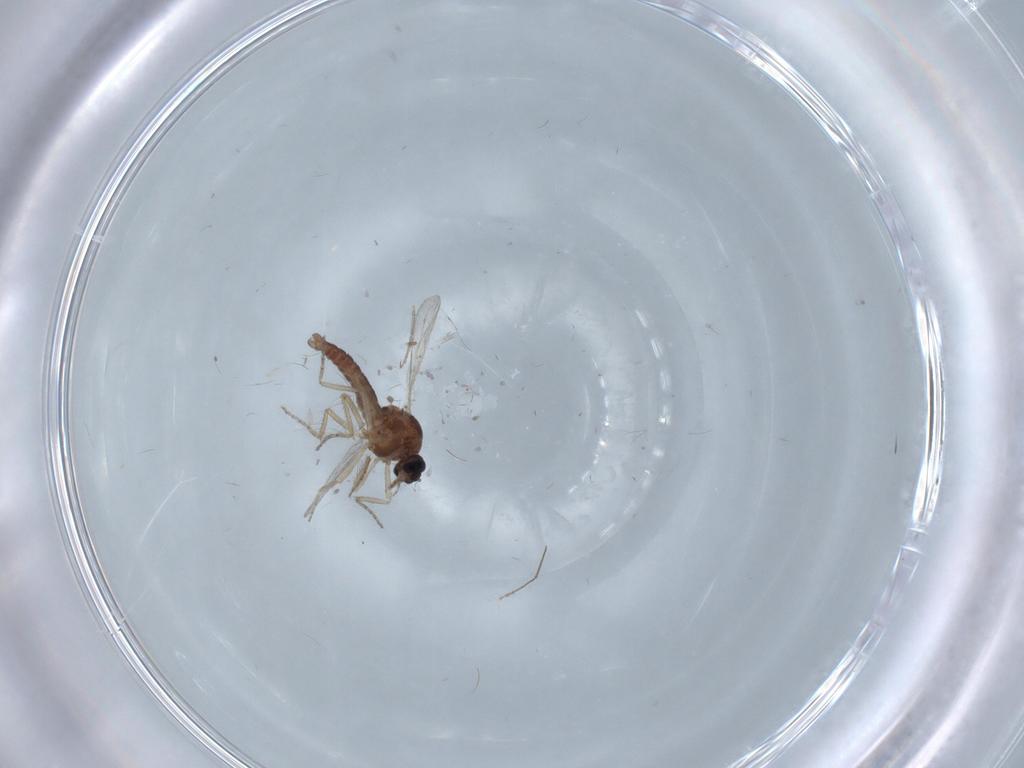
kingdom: Animalia
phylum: Arthropoda
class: Insecta
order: Diptera
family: Ceratopogonidae
